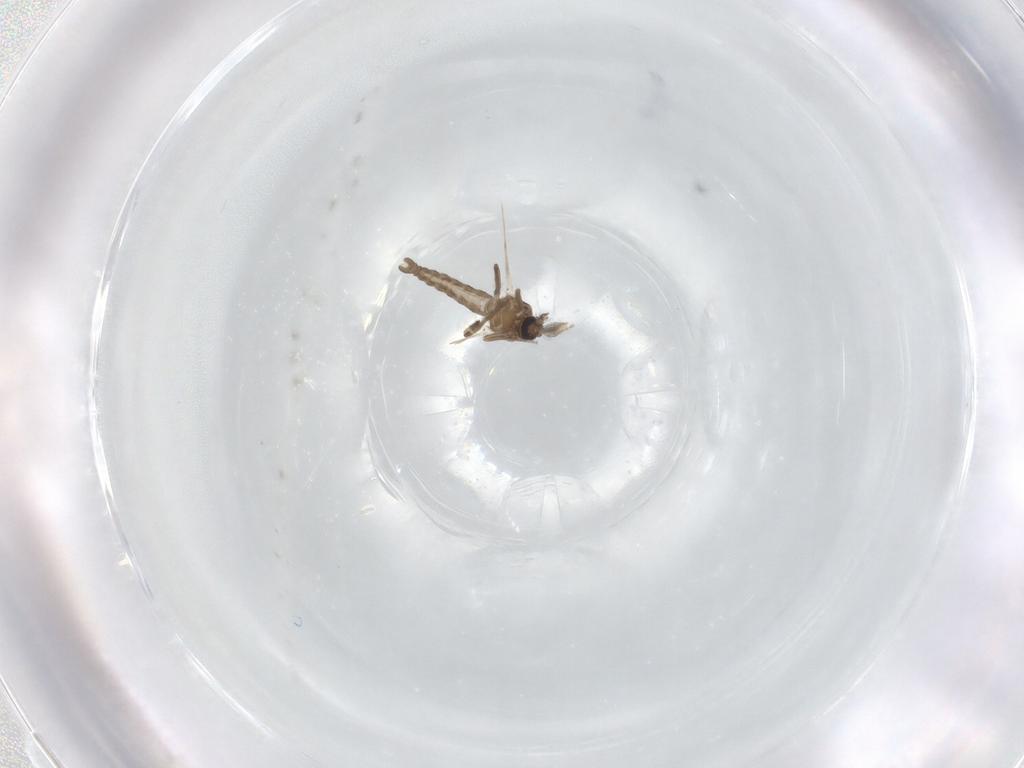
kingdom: Animalia
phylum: Arthropoda
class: Insecta
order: Diptera
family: Ceratopogonidae
